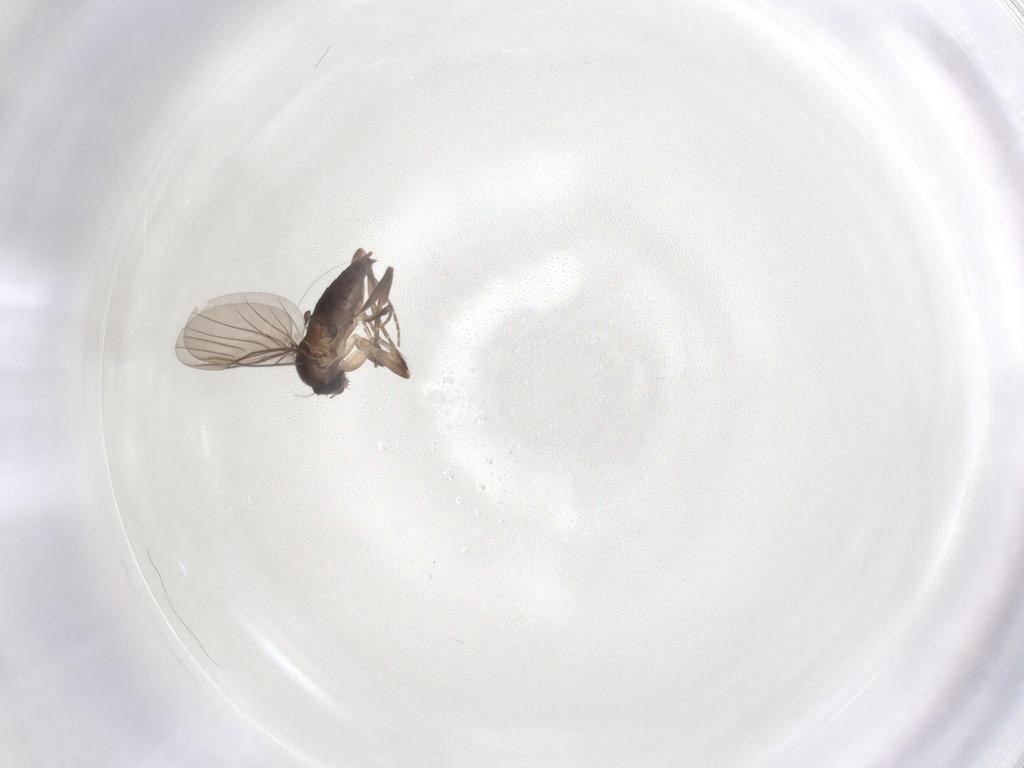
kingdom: Animalia
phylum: Arthropoda
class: Insecta
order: Diptera
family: Phoridae
